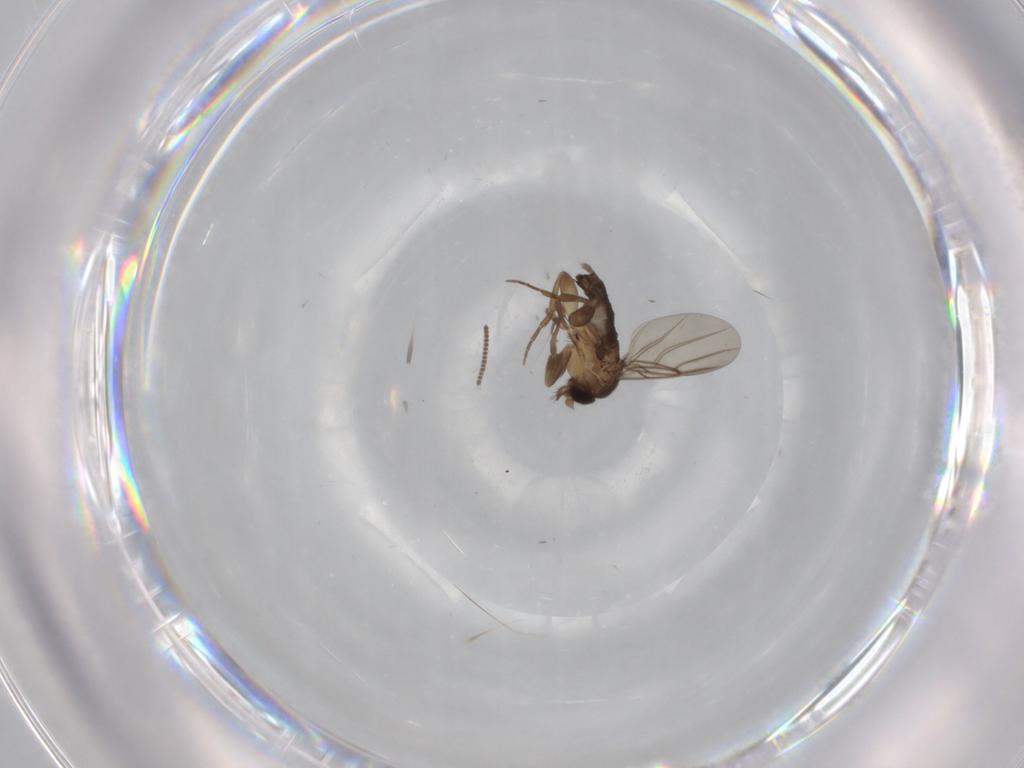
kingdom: Animalia
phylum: Arthropoda
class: Insecta
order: Diptera
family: Phoridae
